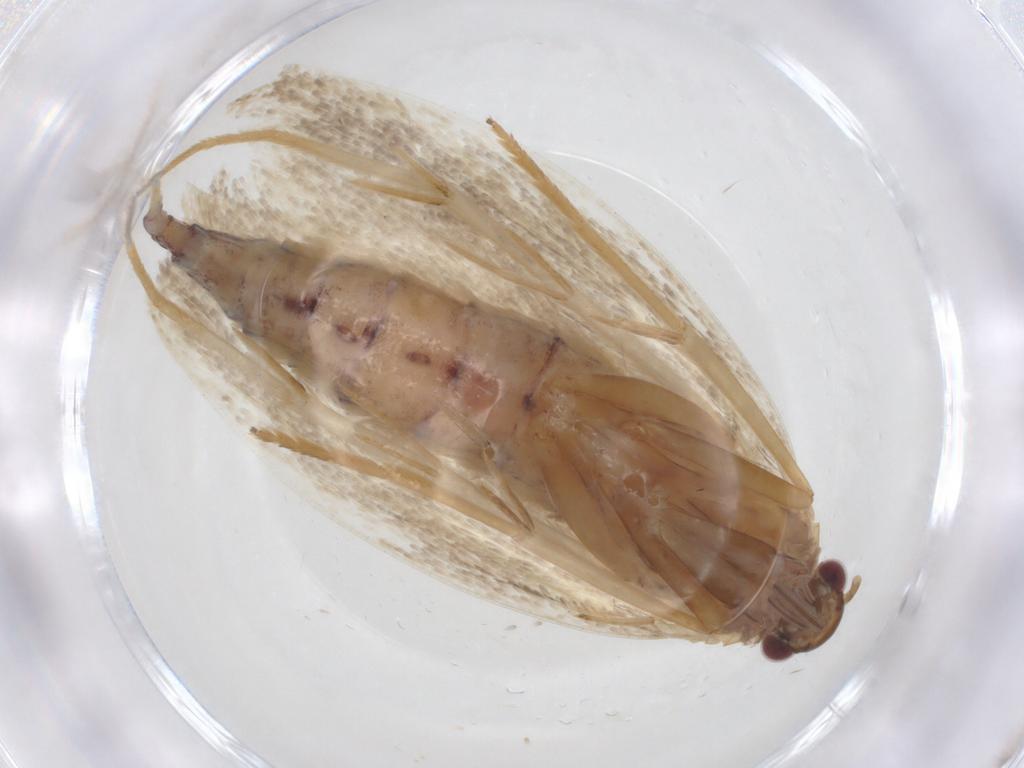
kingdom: Animalia
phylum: Arthropoda
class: Insecta
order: Lepidoptera
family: Oecophoridae
